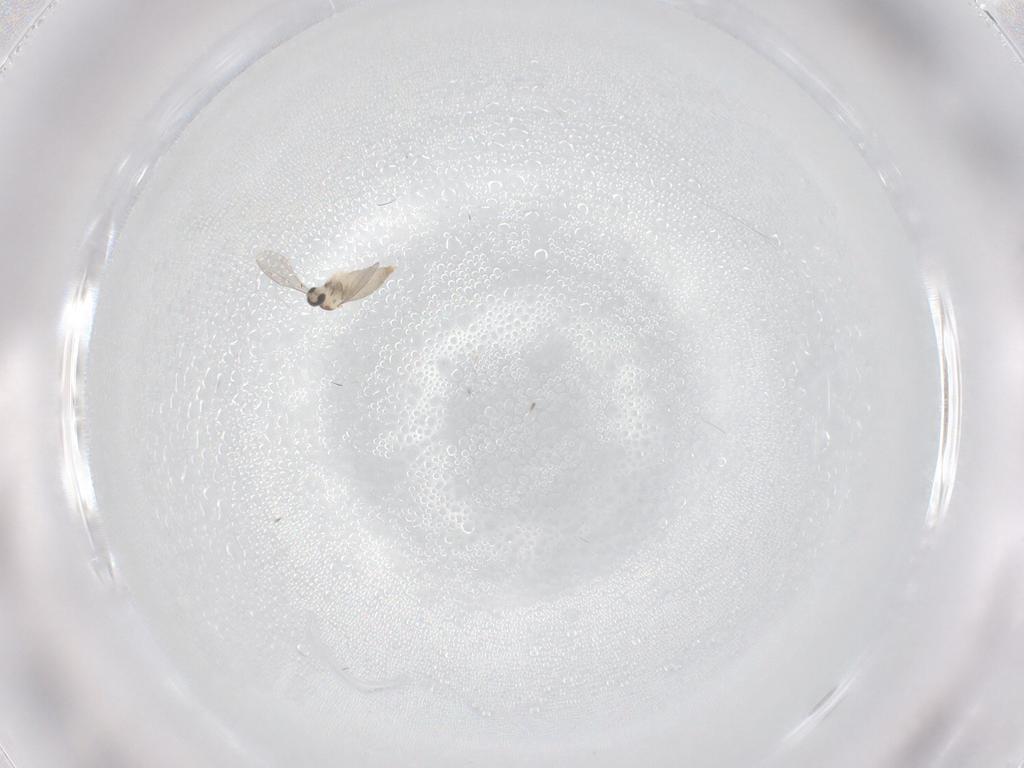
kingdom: Animalia
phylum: Arthropoda
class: Insecta
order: Diptera
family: Cecidomyiidae
